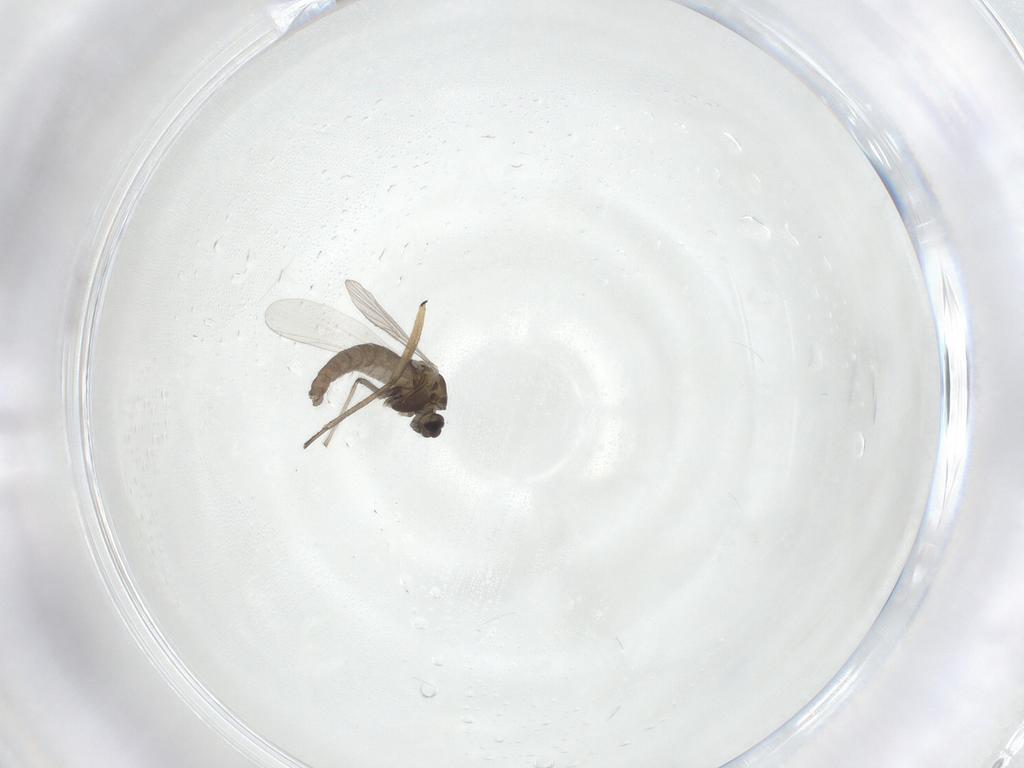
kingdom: Animalia
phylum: Arthropoda
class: Insecta
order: Diptera
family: Chironomidae
